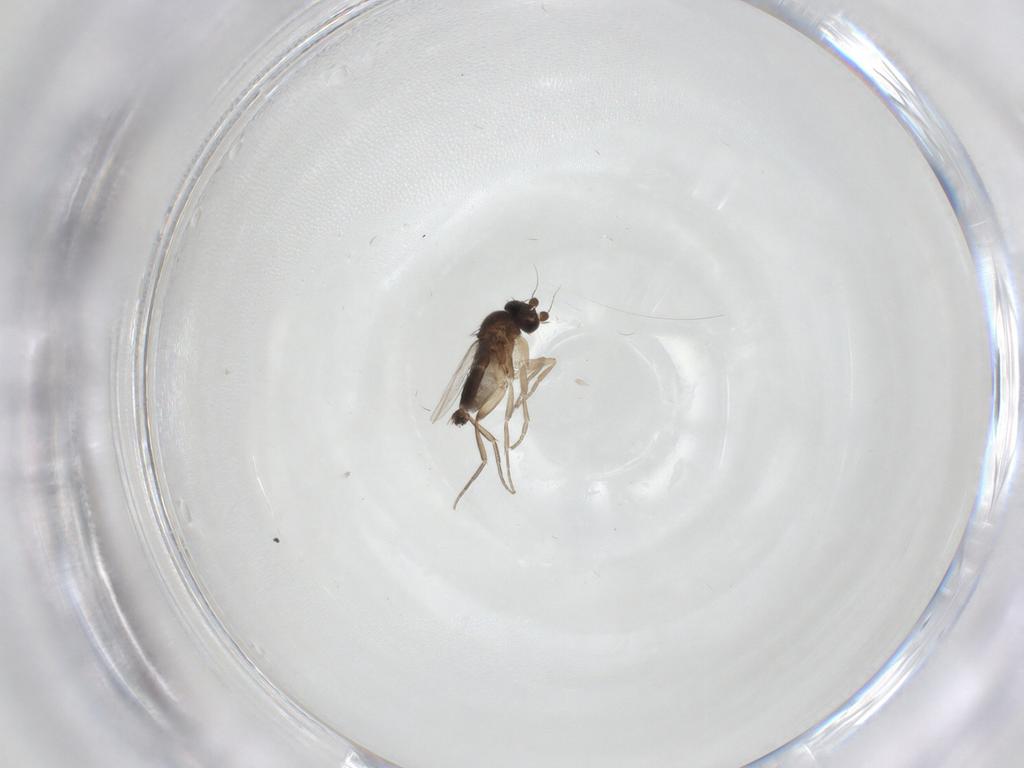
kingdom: Animalia
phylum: Arthropoda
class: Insecta
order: Diptera
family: Phoridae
